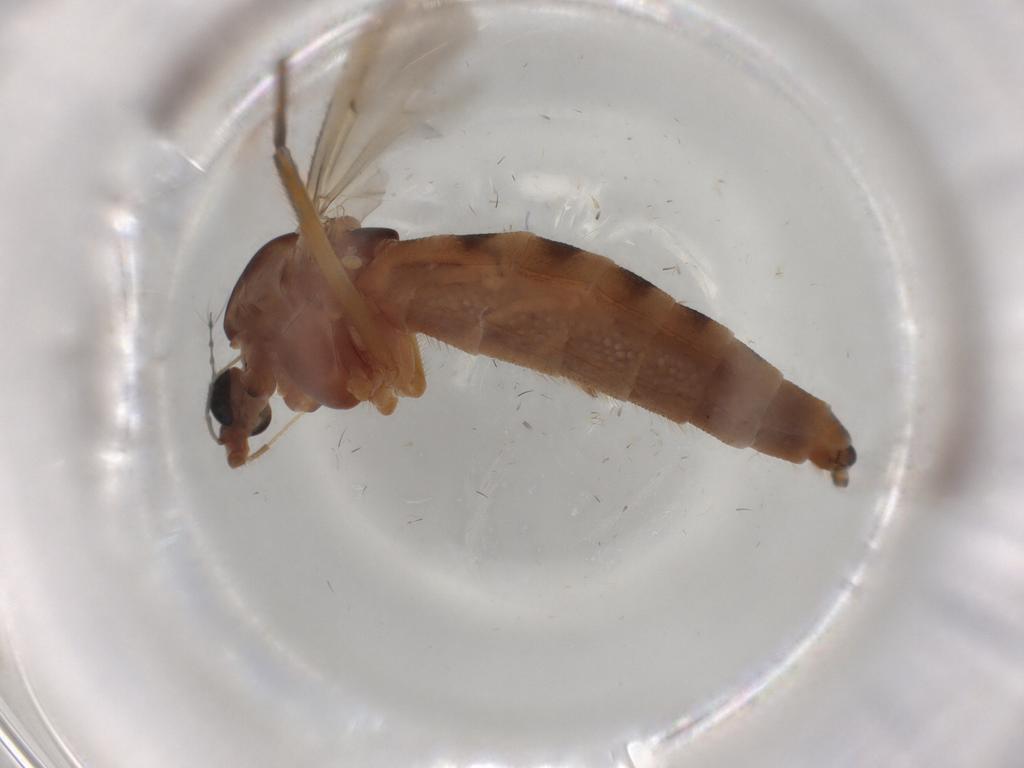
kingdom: Animalia
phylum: Arthropoda
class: Insecta
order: Diptera
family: Chironomidae
